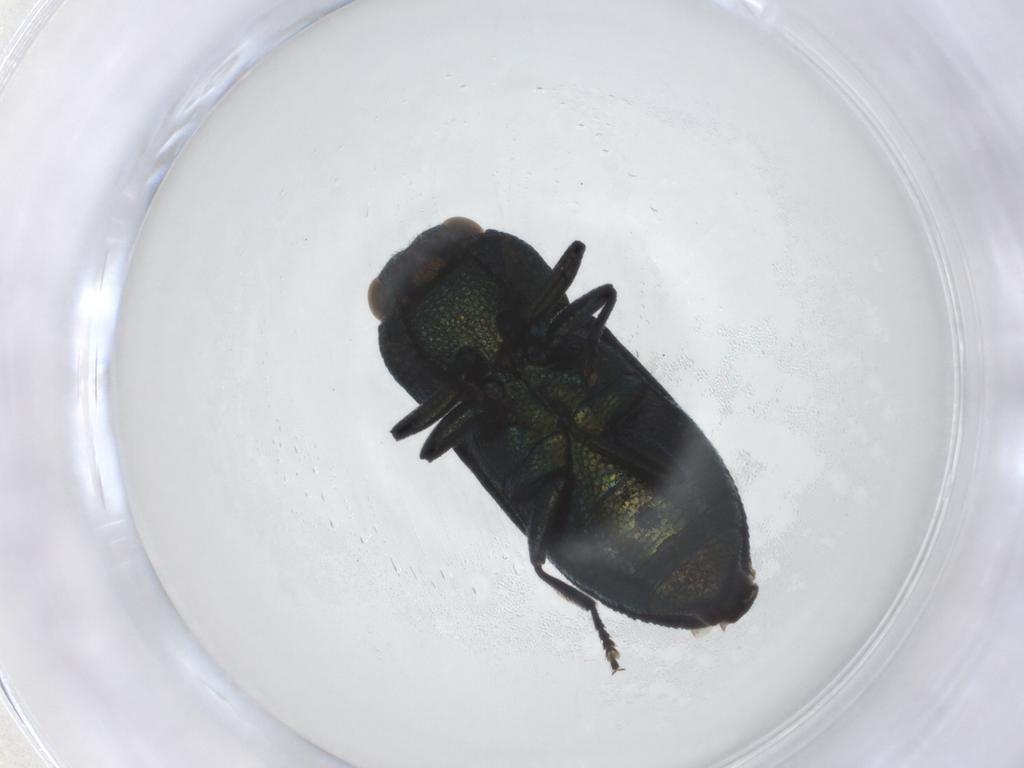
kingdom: Animalia
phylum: Arthropoda
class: Insecta
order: Coleoptera
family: Buprestidae
